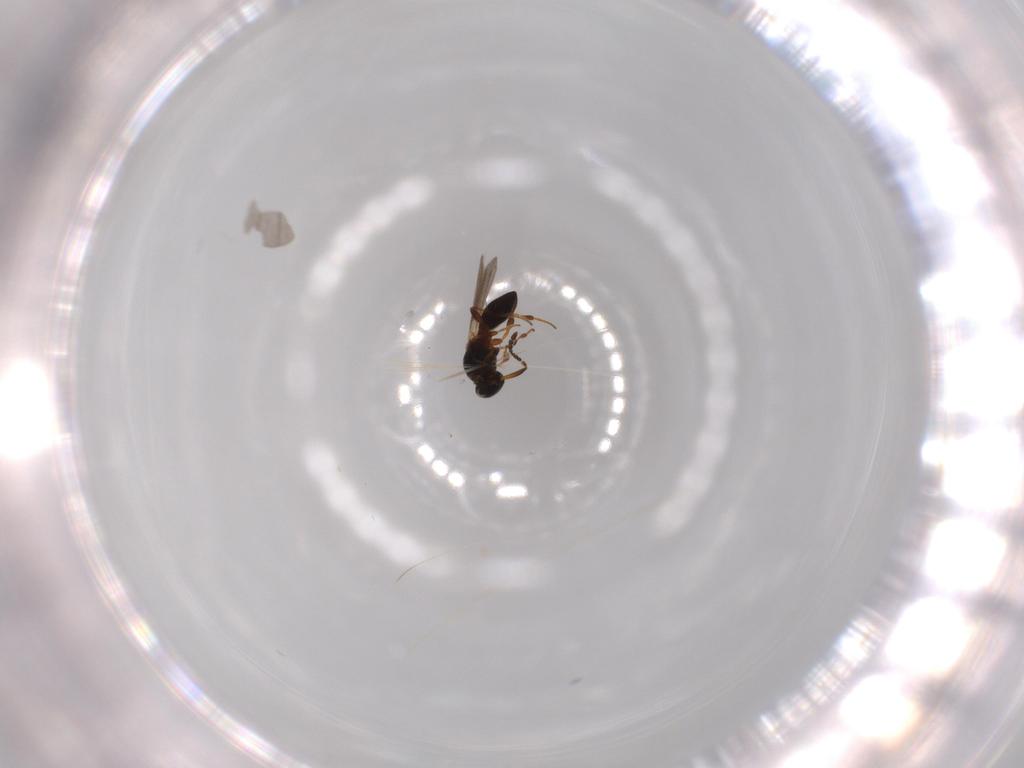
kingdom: Animalia
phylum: Arthropoda
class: Insecta
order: Hymenoptera
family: Platygastridae
